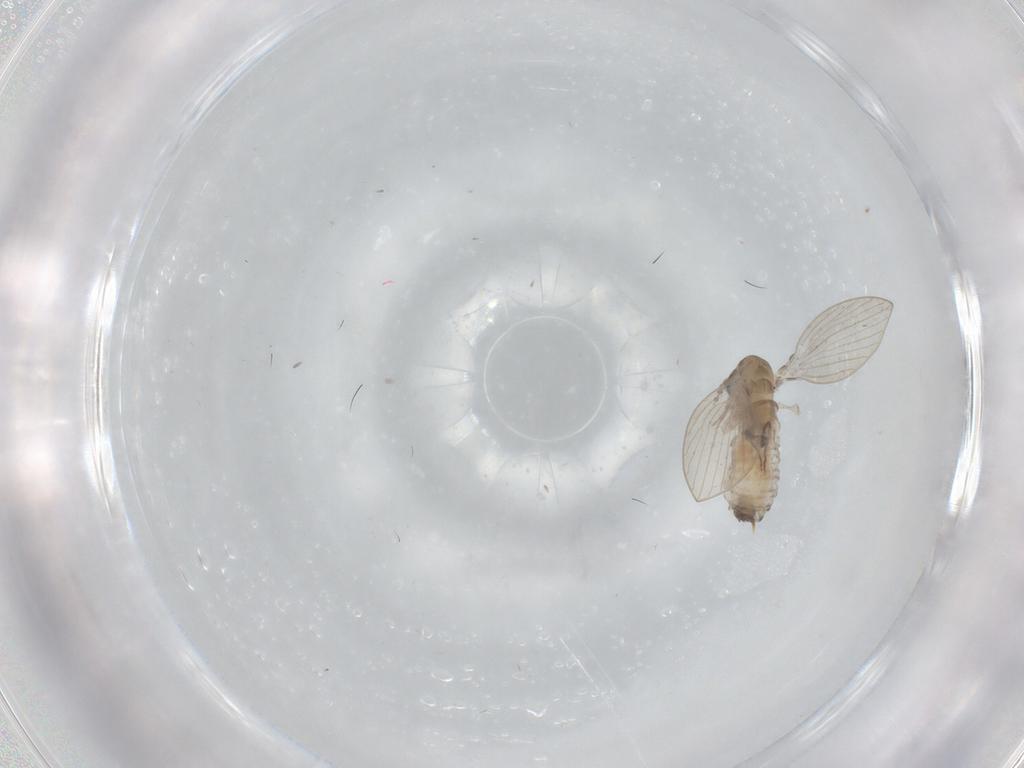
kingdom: Animalia
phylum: Arthropoda
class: Insecta
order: Diptera
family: Psychodidae
